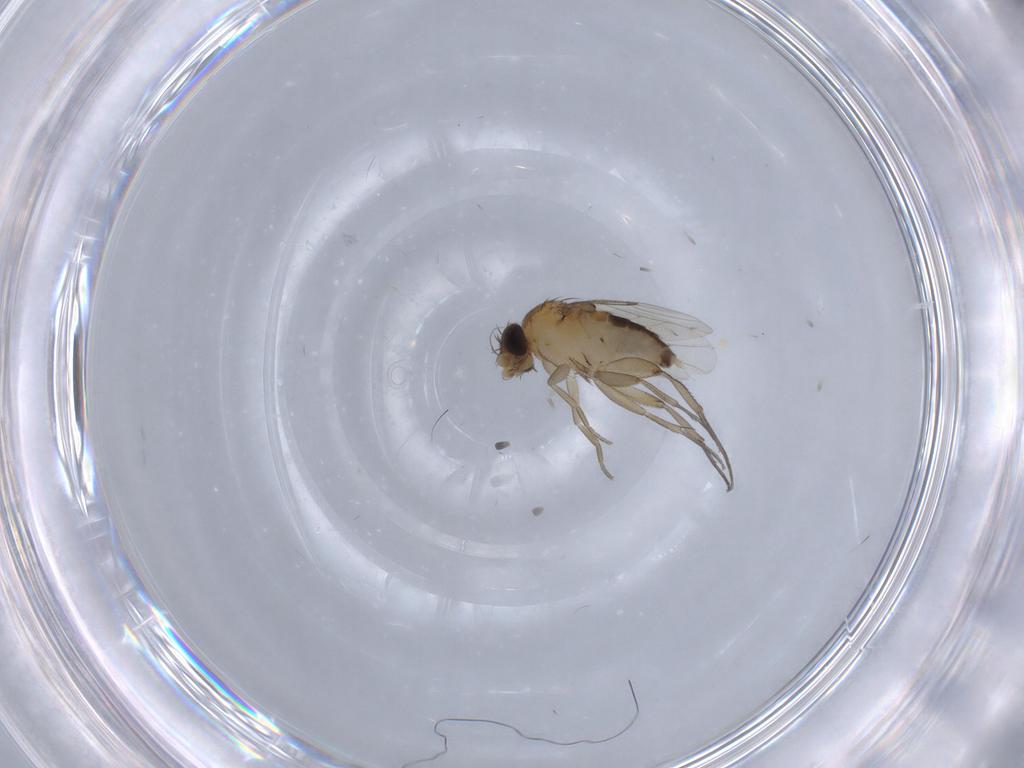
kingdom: Animalia
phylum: Arthropoda
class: Insecta
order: Diptera
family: Phoridae
